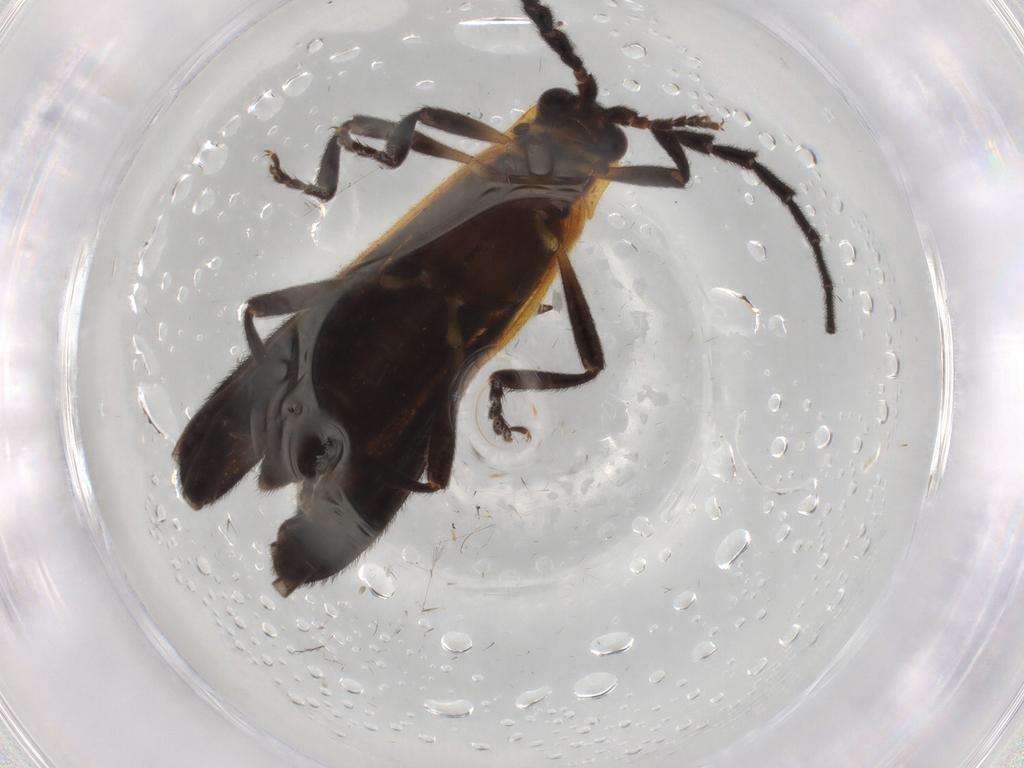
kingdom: Animalia
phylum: Arthropoda
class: Insecta
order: Coleoptera
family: Lycidae
